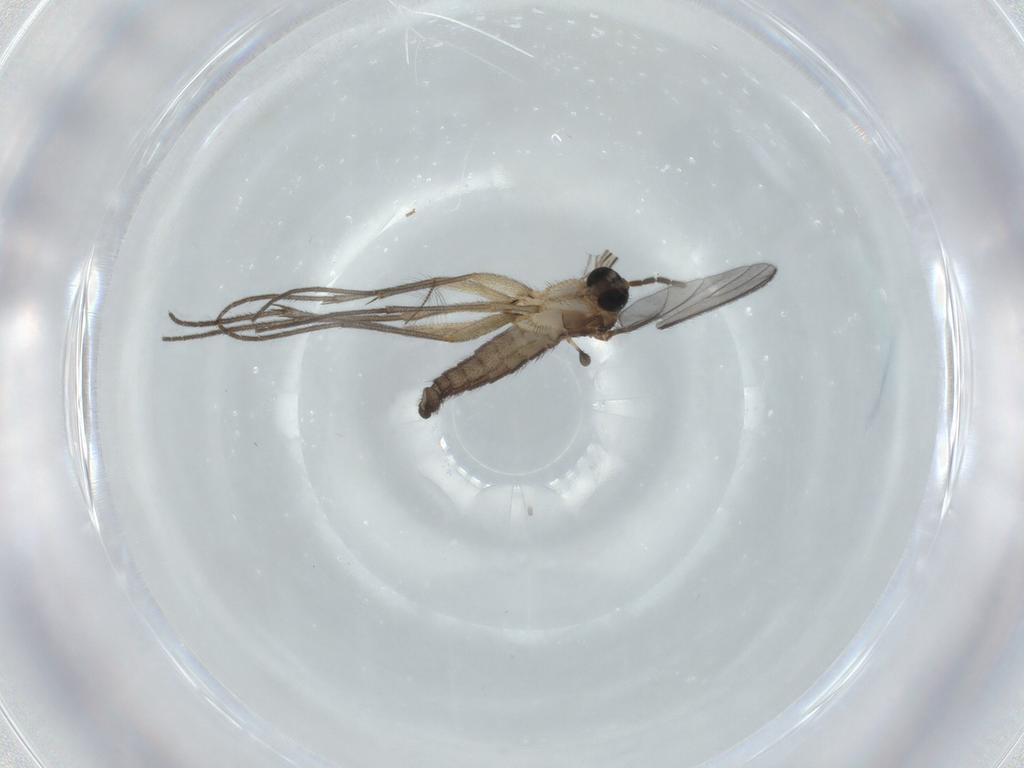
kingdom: Animalia
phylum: Arthropoda
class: Insecta
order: Diptera
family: Sciaridae
